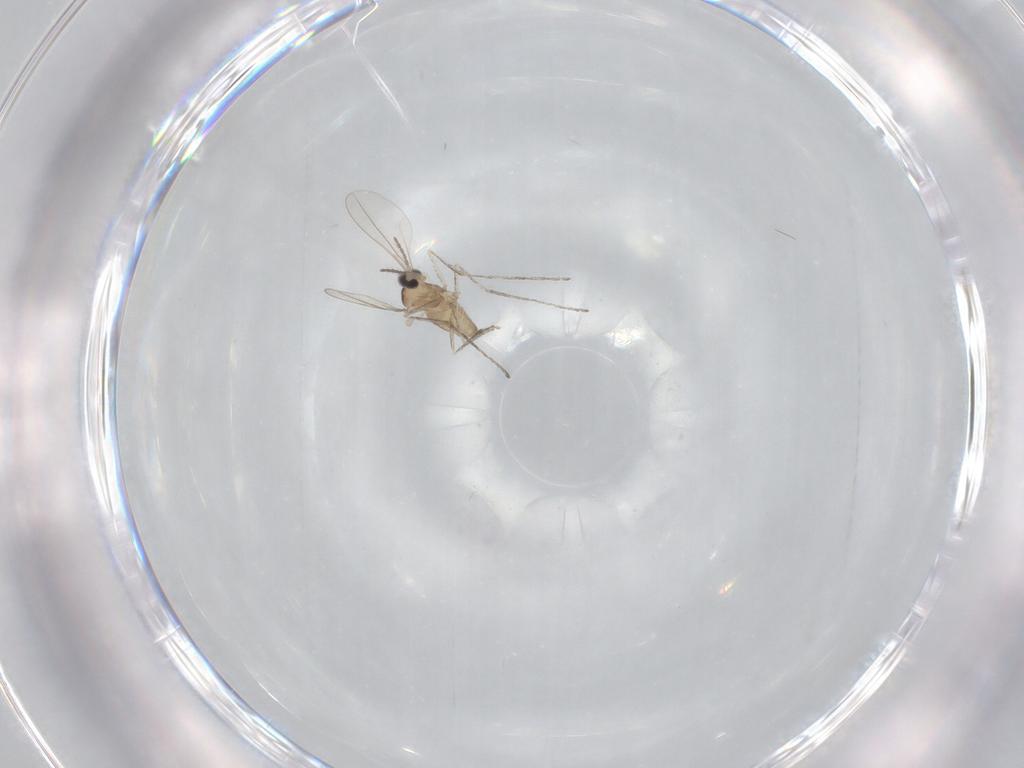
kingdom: Animalia
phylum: Arthropoda
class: Insecta
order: Diptera
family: Cecidomyiidae
